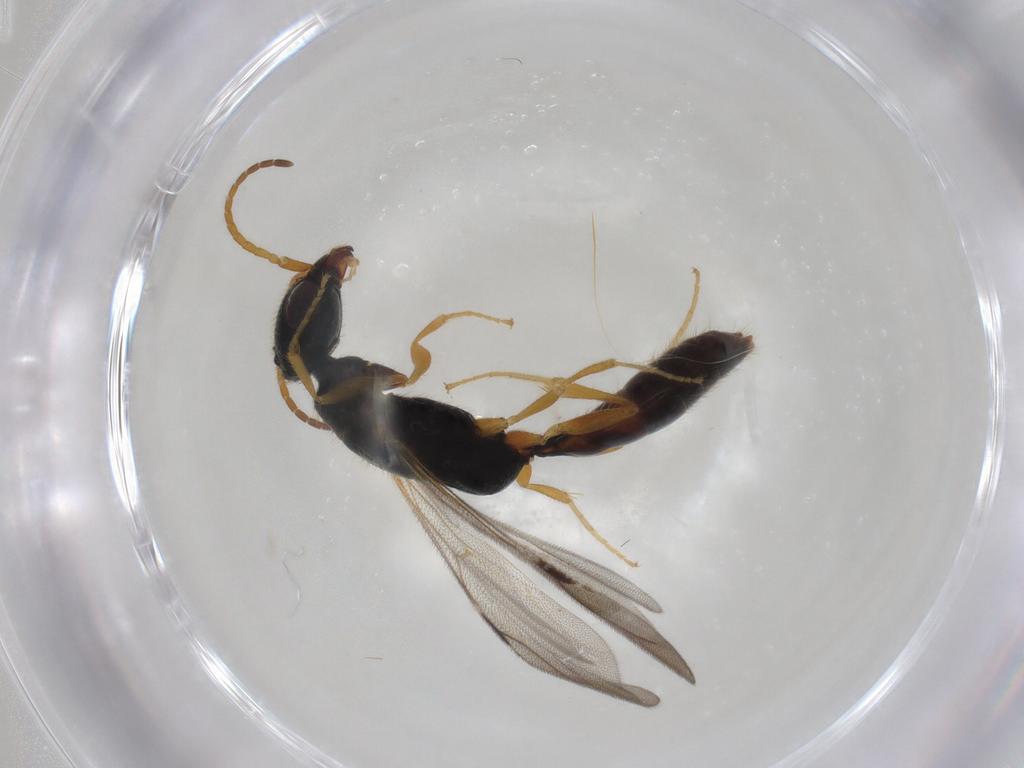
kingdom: Animalia
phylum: Arthropoda
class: Insecta
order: Hymenoptera
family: Bethylidae
